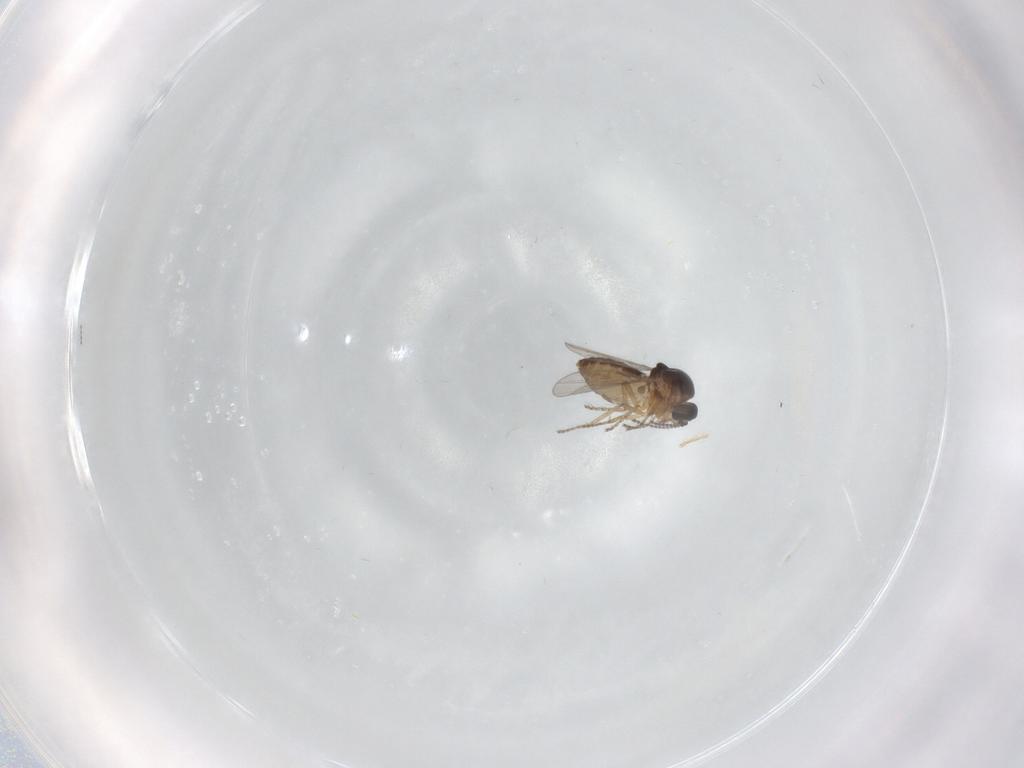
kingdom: Animalia
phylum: Arthropoda
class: Insecta
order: Diptera
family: Ceratopogonidae
